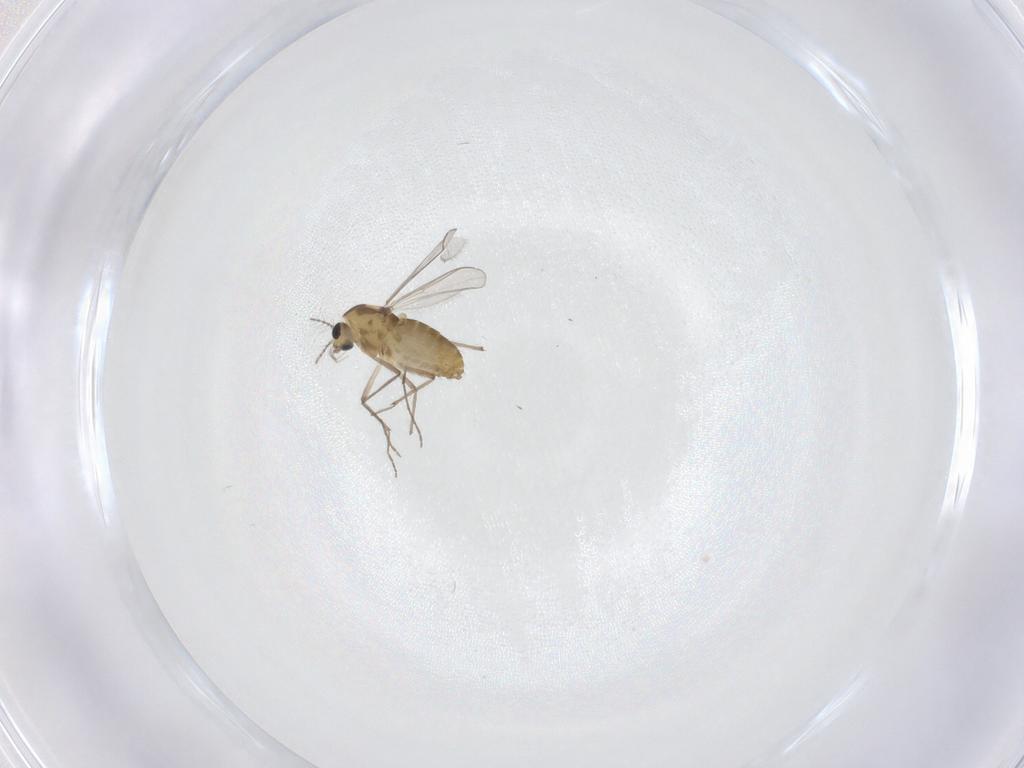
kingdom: Animalia
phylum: Arthropoda
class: Insecta
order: Diptera
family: Chironomidae
